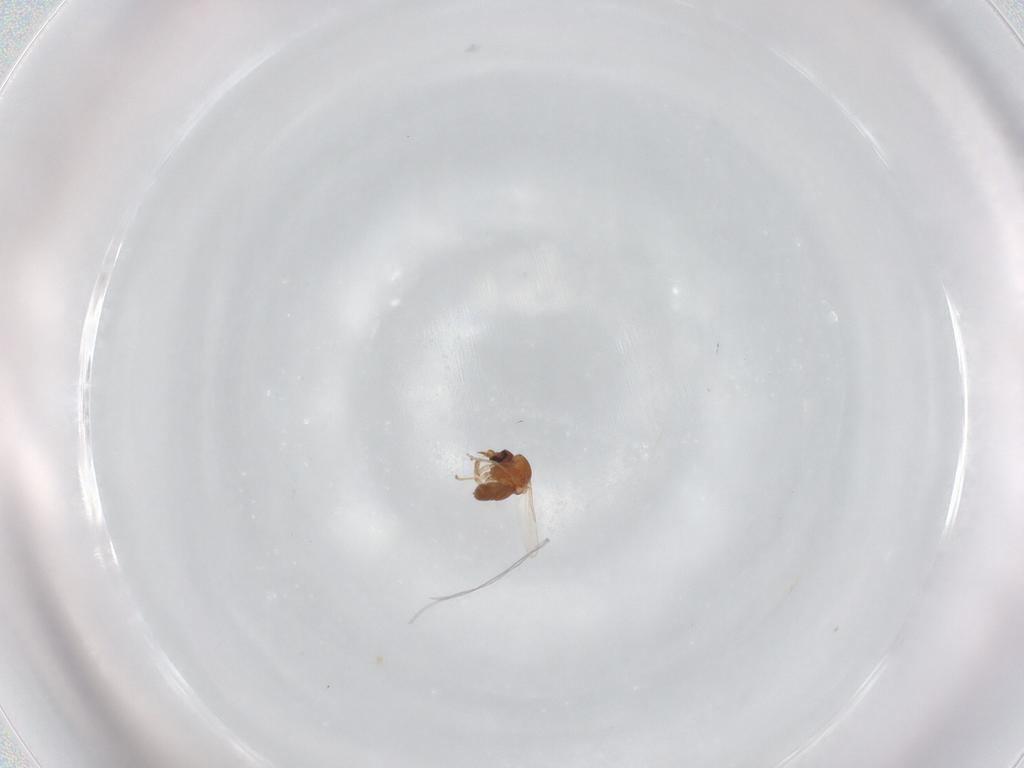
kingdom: Animalia
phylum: Arthropoda
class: Insecta
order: Diptera
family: Ceratopogonidae
